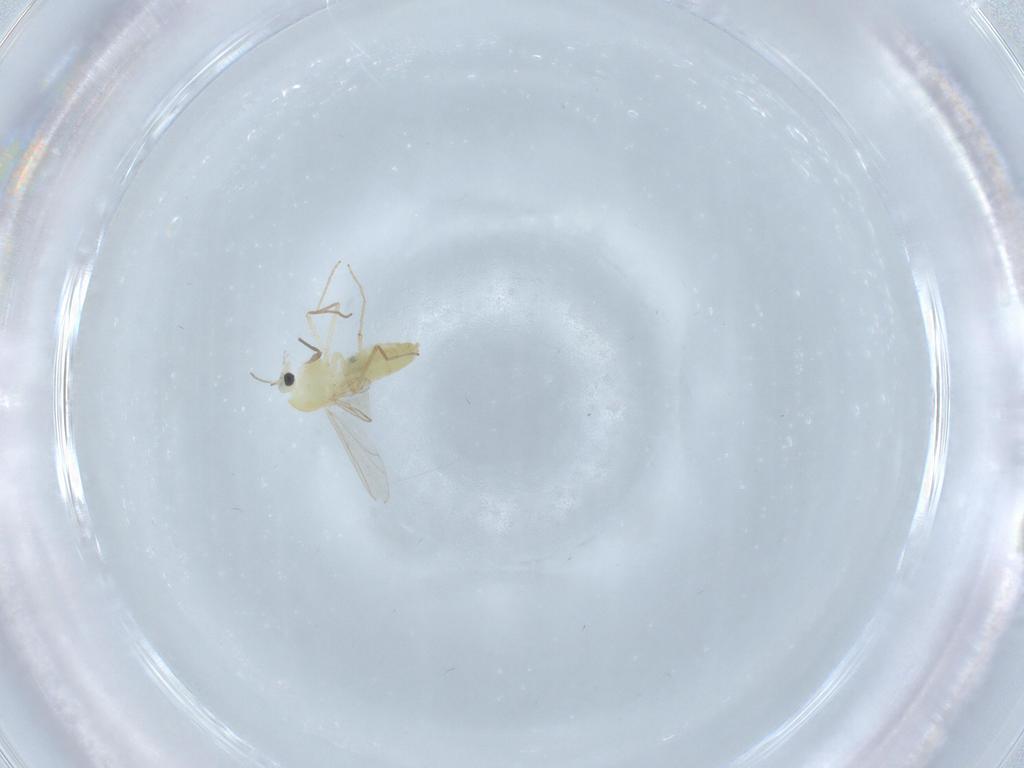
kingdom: Animalia
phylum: Arthropoda
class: Insecta
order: Diptera
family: Chironomidae
